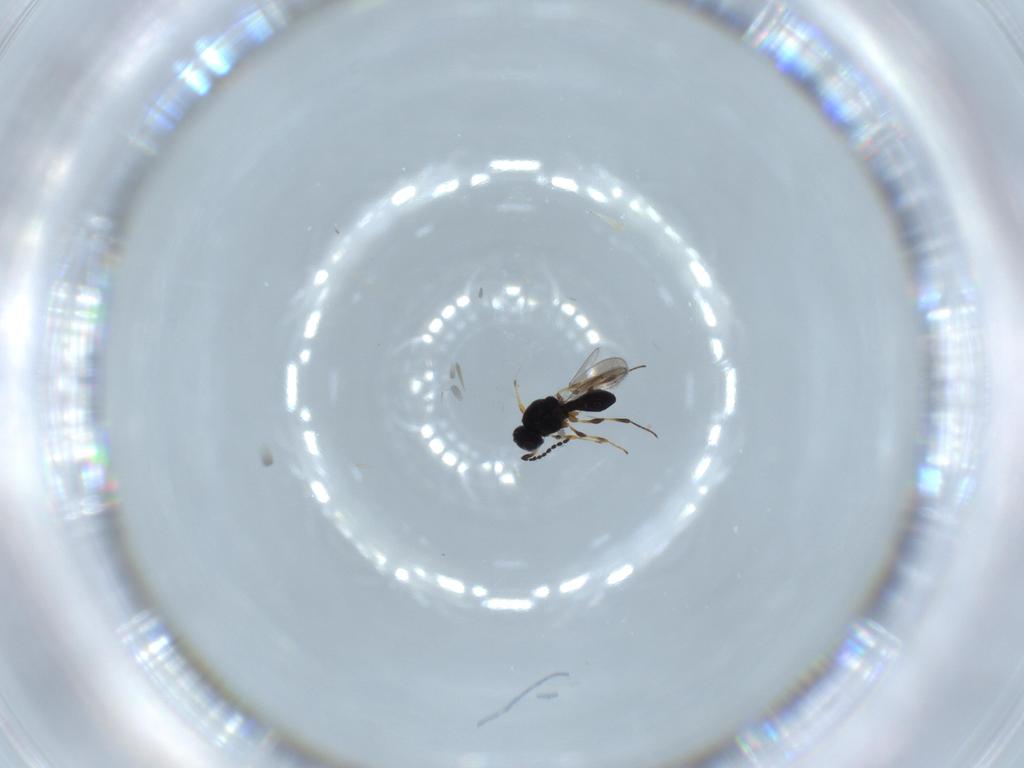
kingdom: Animalia
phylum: Arthropoda
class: Insecta
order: Hymenoptera
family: Platygastridae
